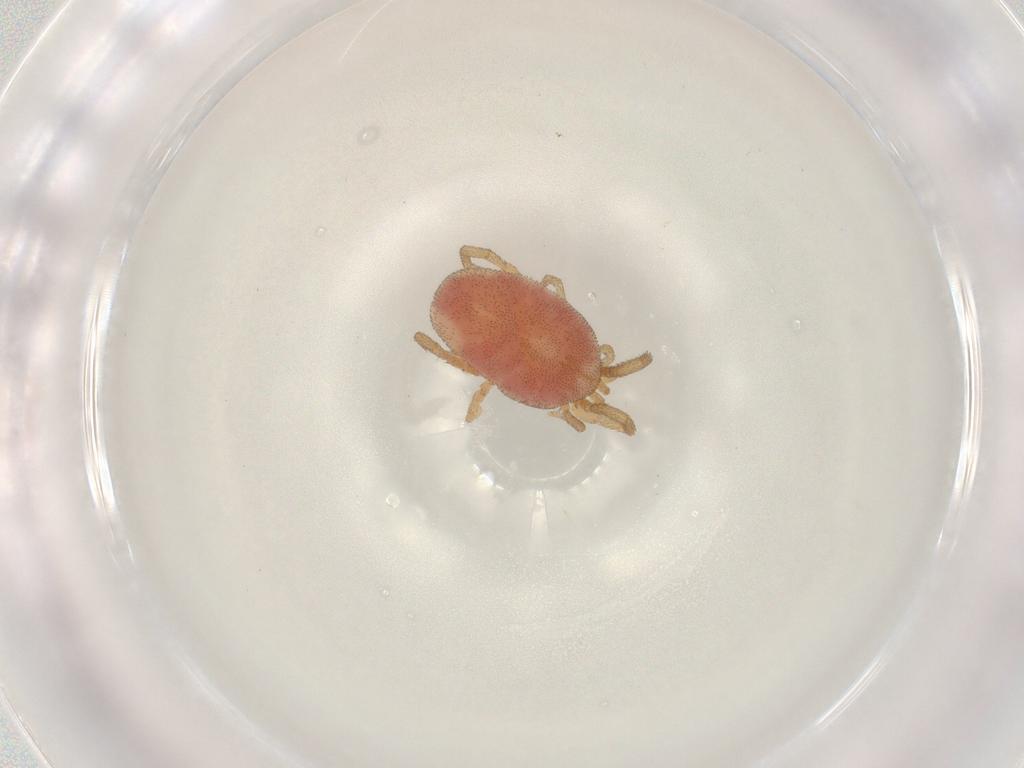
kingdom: Animalia
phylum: Arthropoda
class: Arachnida
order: Trombidiformes
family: Erythraeidae
